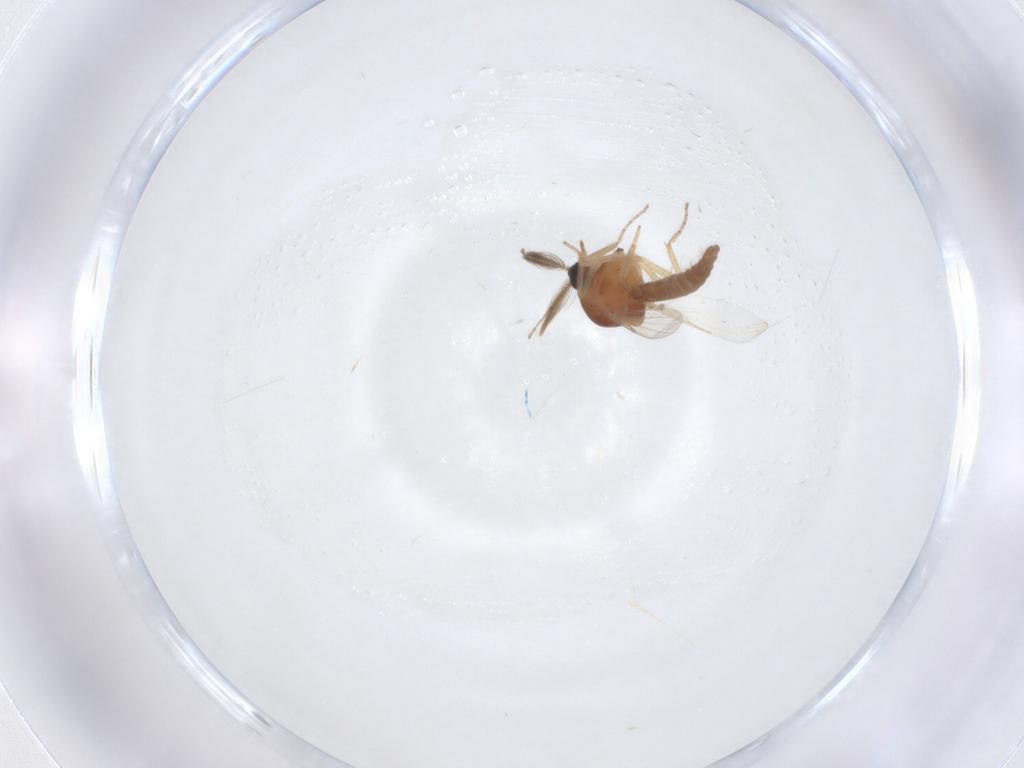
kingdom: Animalia
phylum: Arthropoda
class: Insecta
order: Diptera
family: Ceratopogonidae
